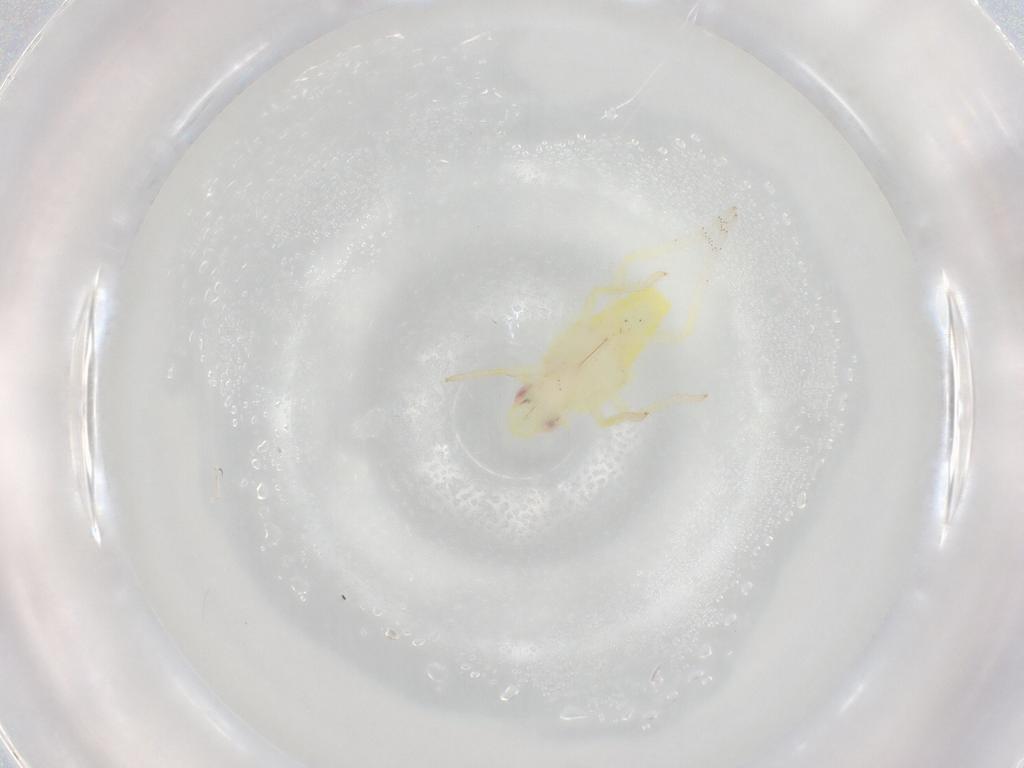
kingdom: Animalia
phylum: Arthropoda
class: Insecta
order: Hemiptera
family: Fulgoroidea_incertae_sedis
